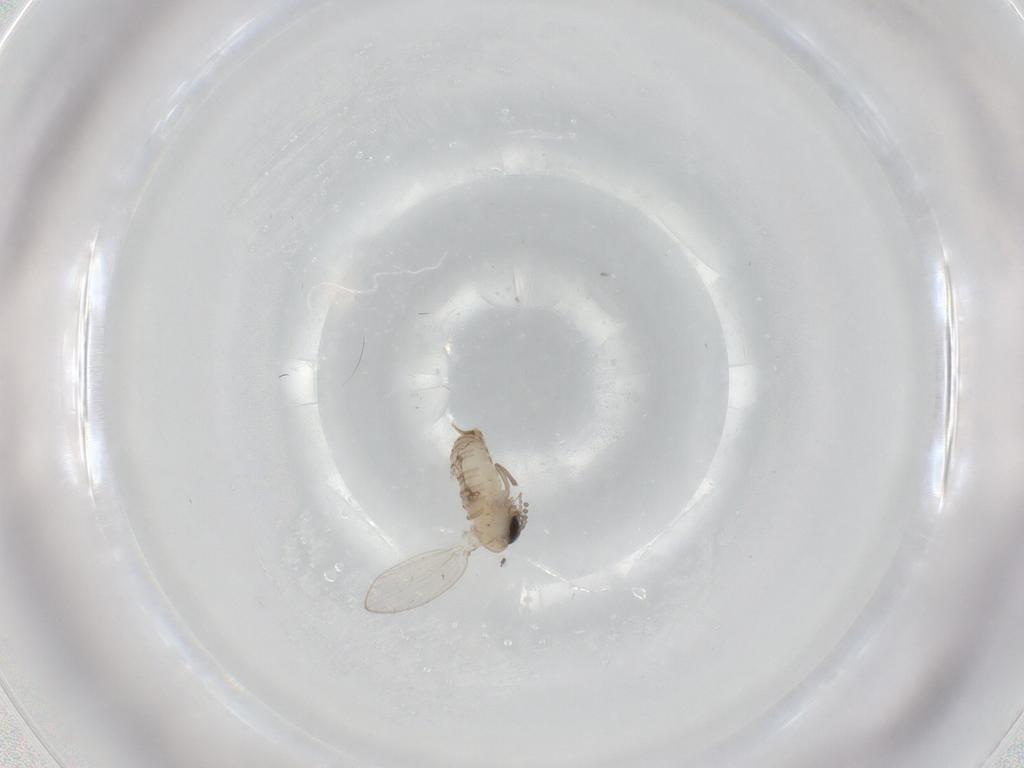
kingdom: Animalia
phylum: Arthropoda
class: Insecta
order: Diptera
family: Psychodidae
